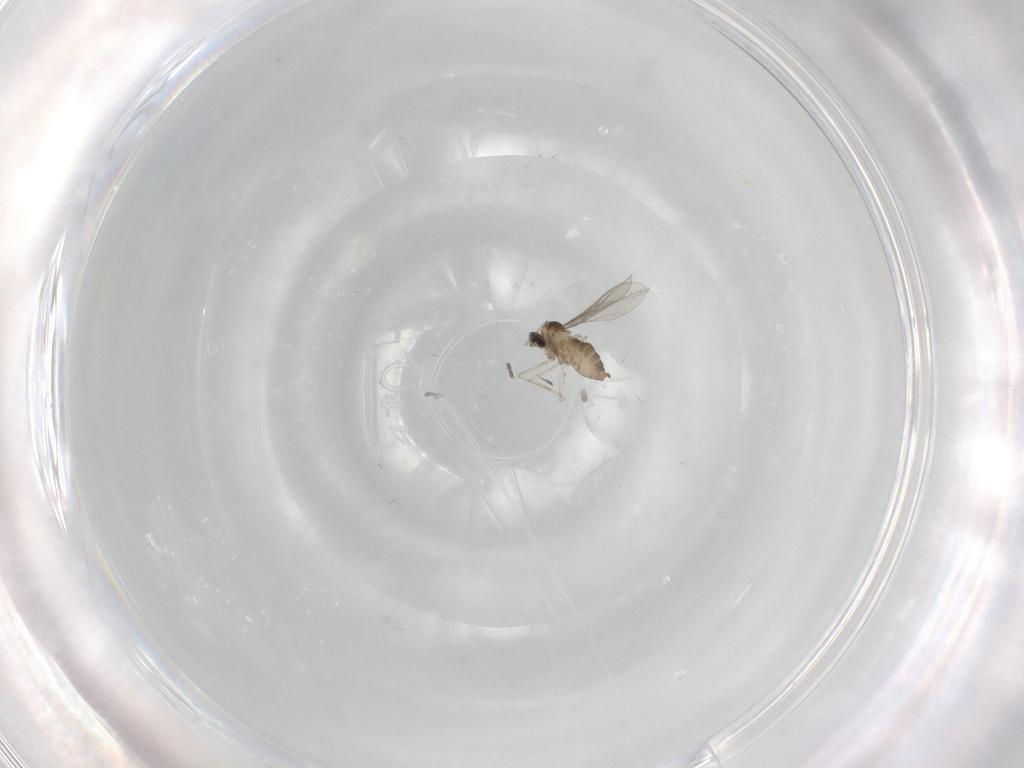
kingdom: Animalia
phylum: Arthropoda
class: Insecta
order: Diptera
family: Cecidomyiidae
